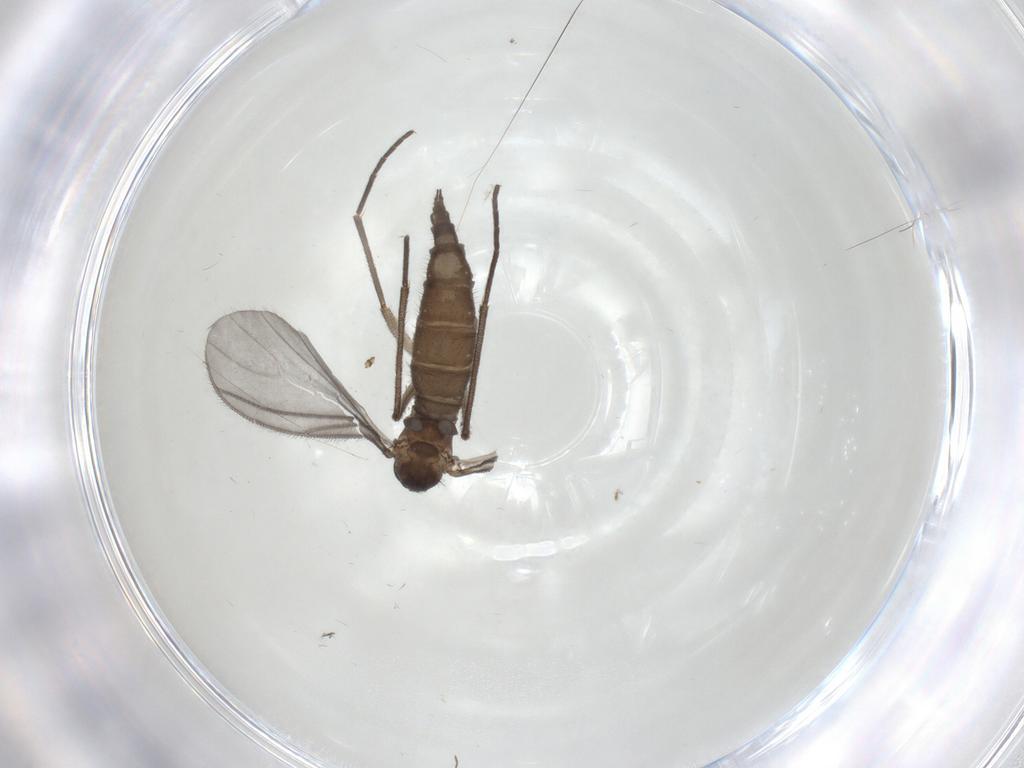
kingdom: Animalia
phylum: Arthropoda
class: Insecta
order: Diptera
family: Sciaridae
